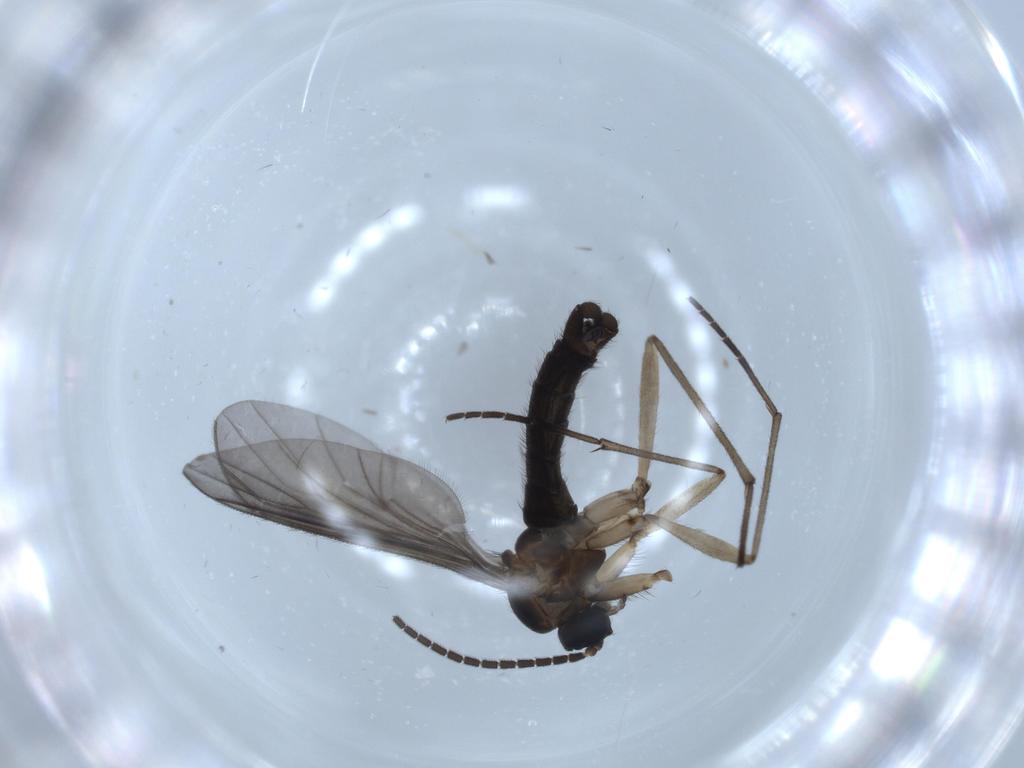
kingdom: Animalia
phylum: Arthropoda
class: Insecta
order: Diptera
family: Sciaridae
